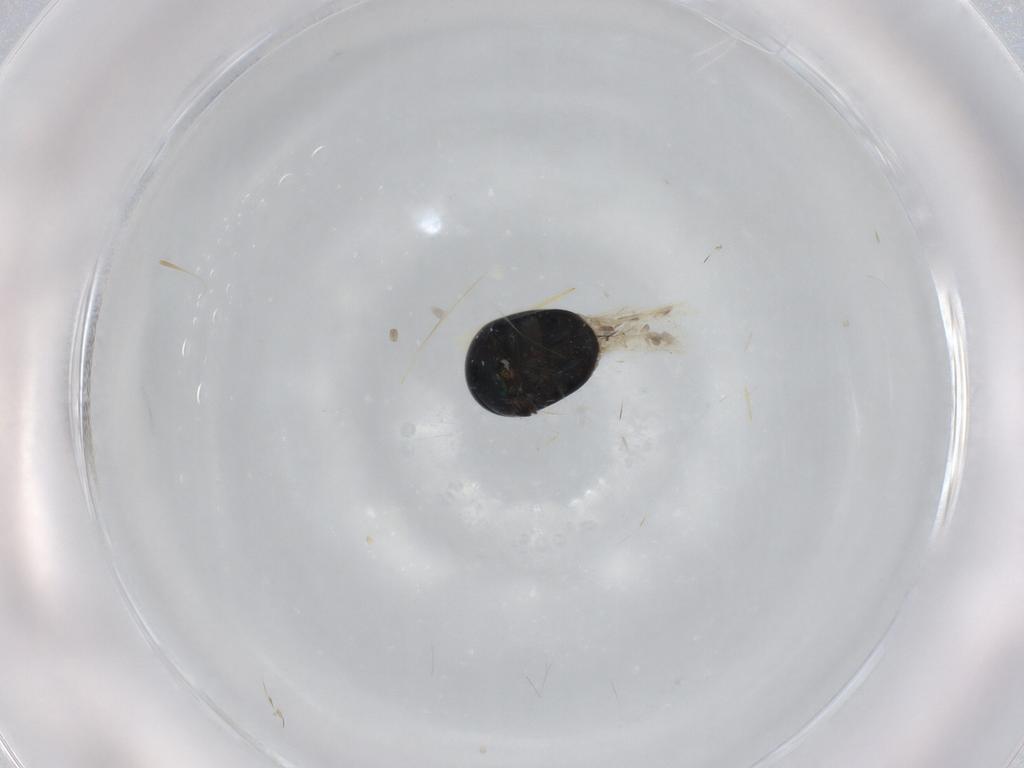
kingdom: Animalia
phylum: Arthropoda
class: Insecta
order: Coleoptera
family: Cybocephalidae
